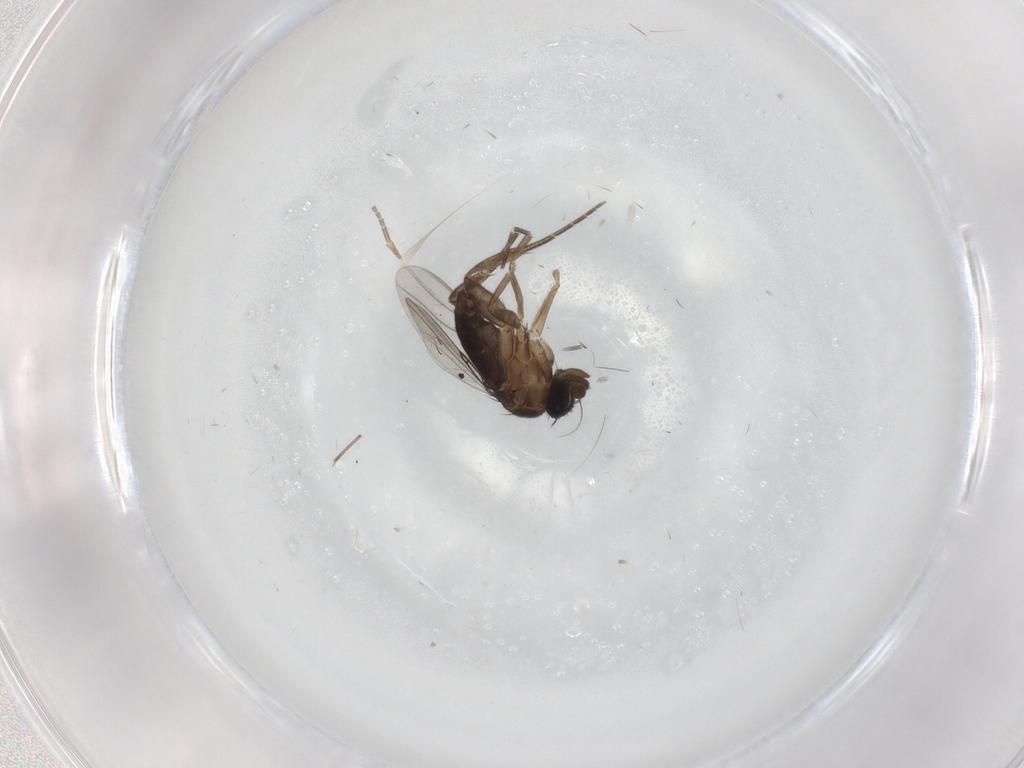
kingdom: Animalia
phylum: Arthropoda
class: Insecta
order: Diptera
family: Phoridae
